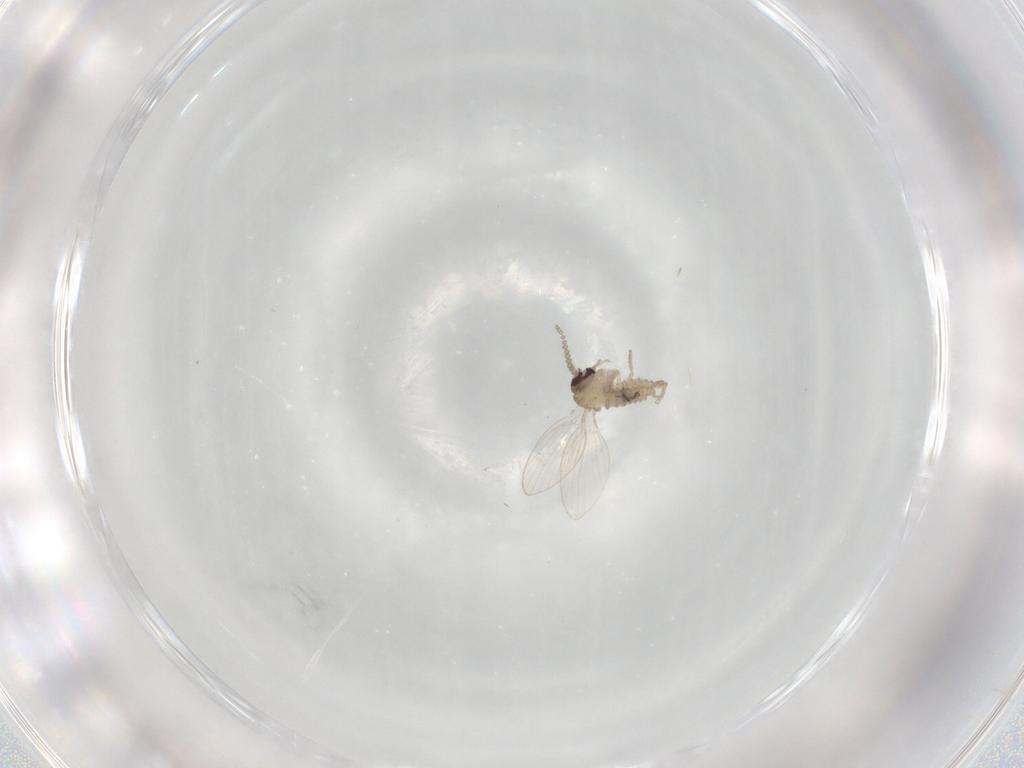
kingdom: Animalia
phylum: Arthropoda
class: Insecta
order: Diptera
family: Psychodidae
